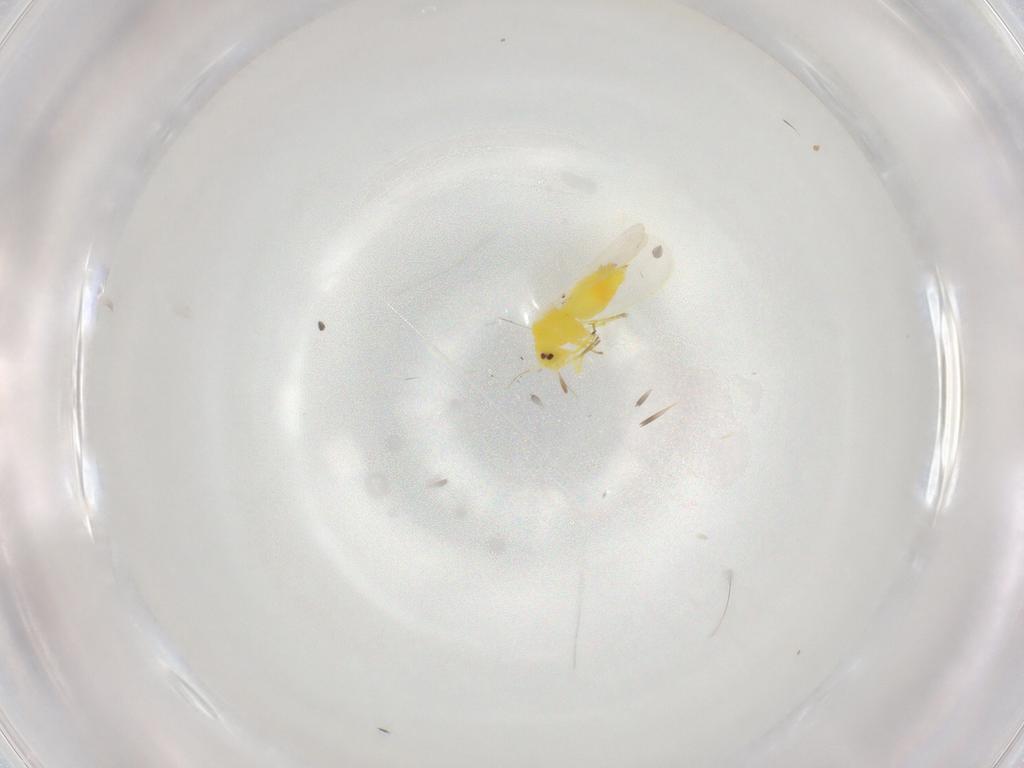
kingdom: Animalia
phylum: Arthropoda
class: Insecta
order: Hemiptera
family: Aleyrodidae
